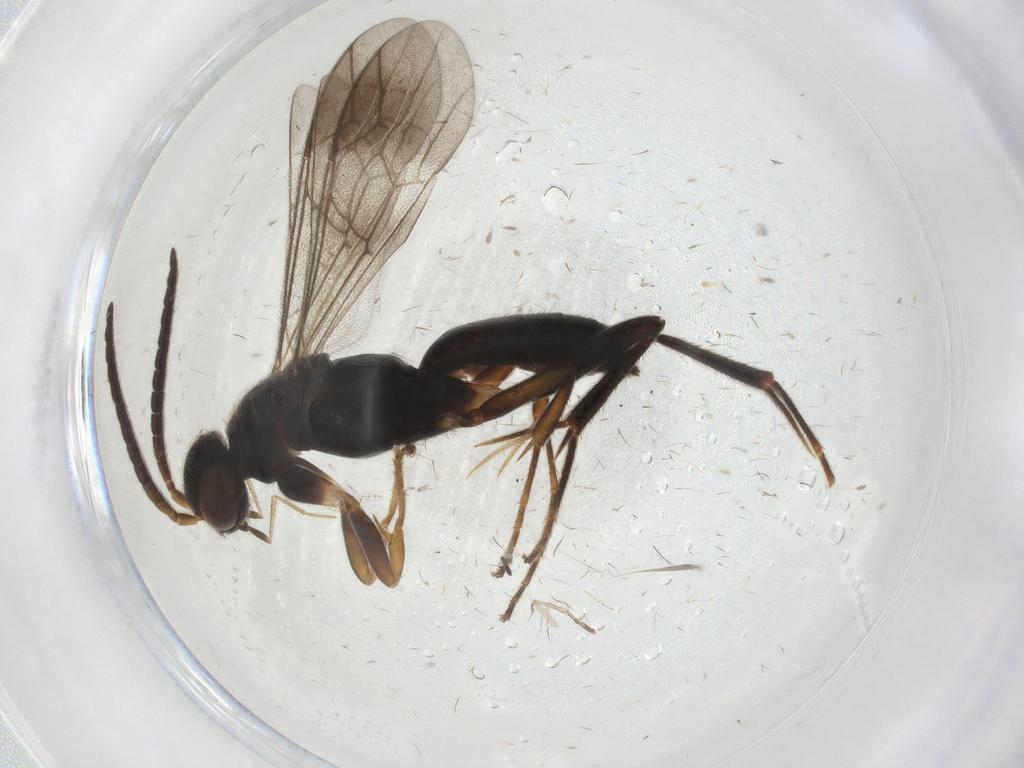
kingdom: Animalia
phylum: Arthropoda
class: Insecta
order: Hymenoptera
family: Pompilidae
